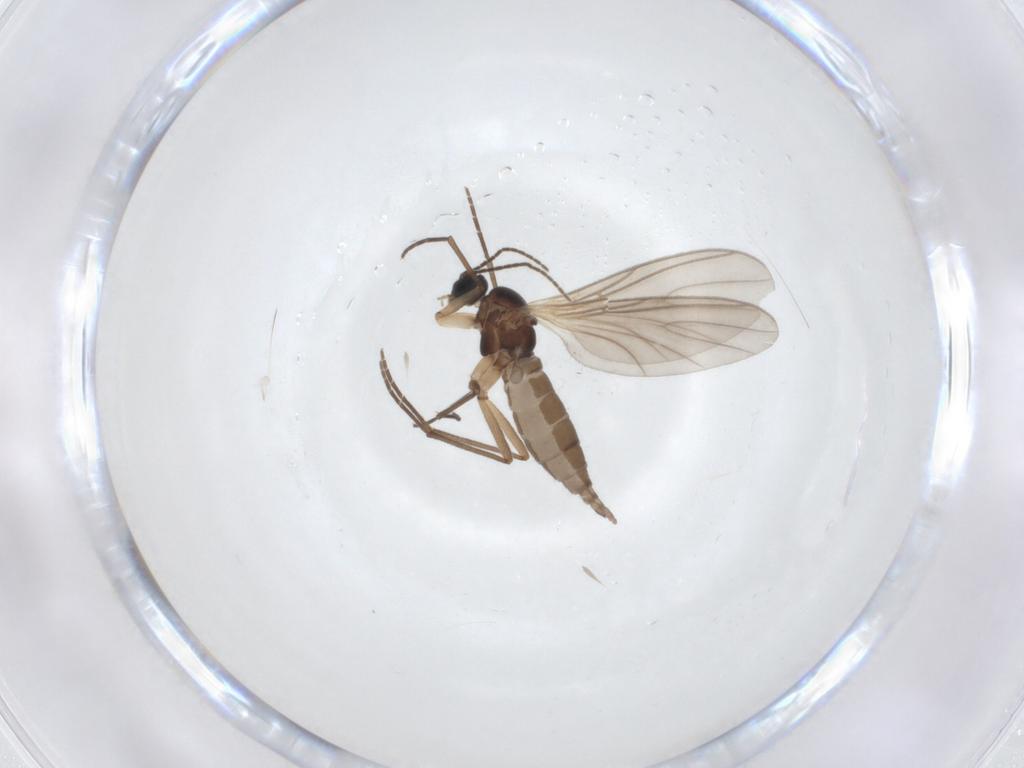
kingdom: Animalia
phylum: Arthropoda
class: Insecta
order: Diptera
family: Sciaridae
